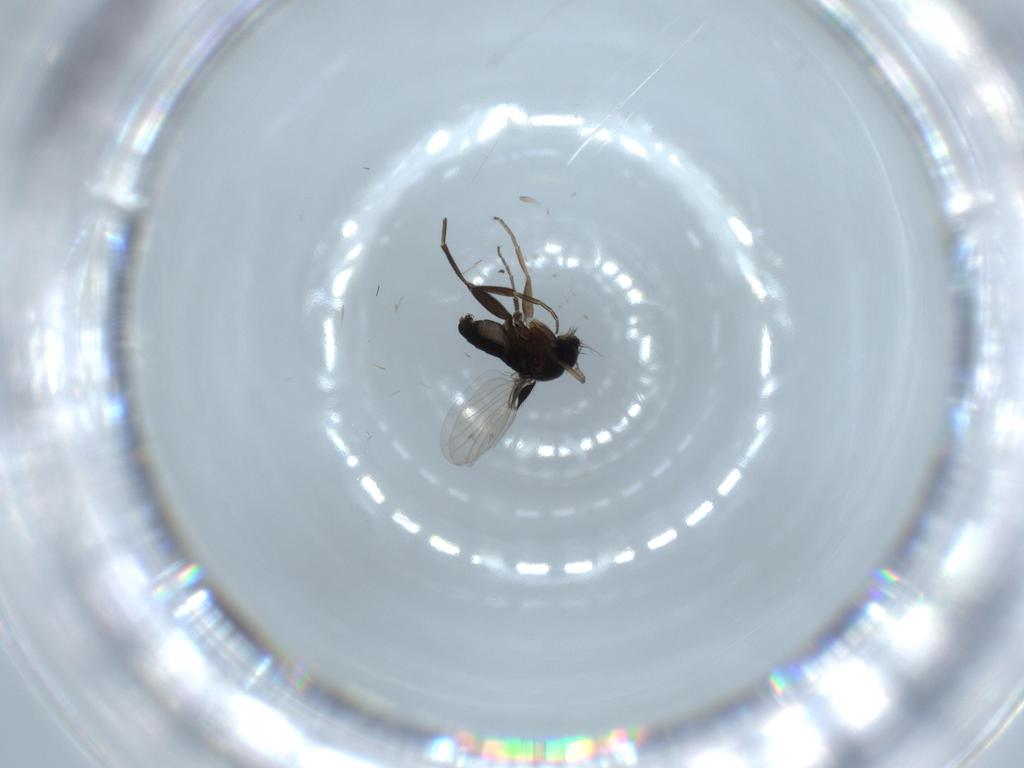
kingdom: Animalia
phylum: Arthropoda
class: Insecta
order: Diptera
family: Phoridae
